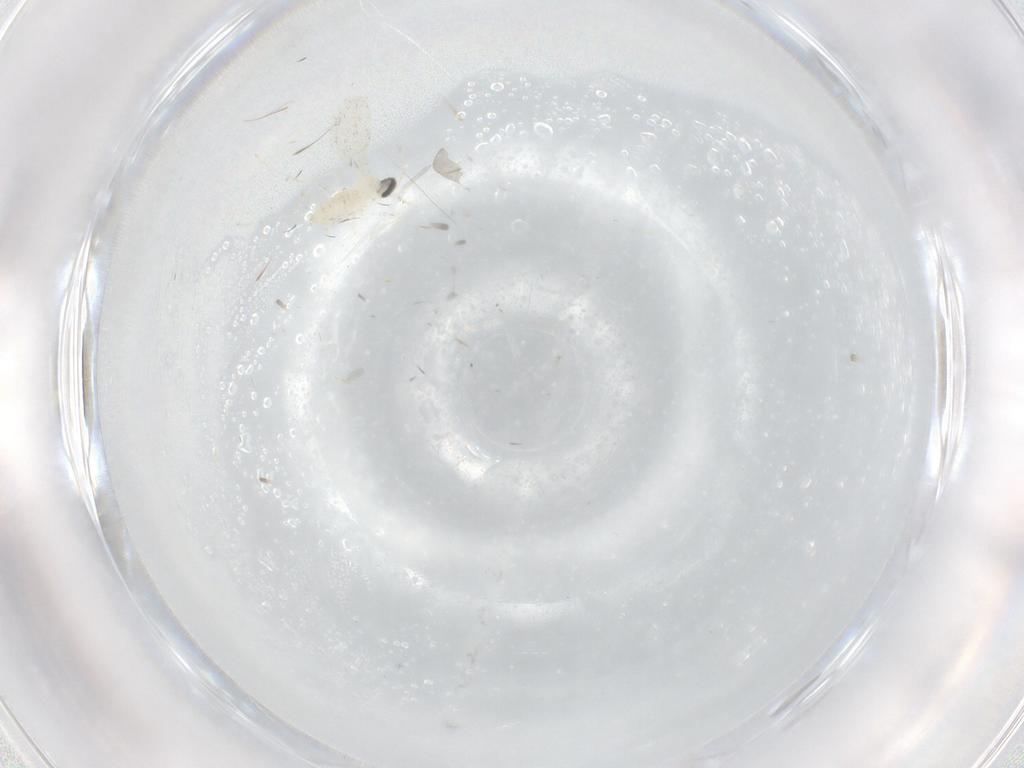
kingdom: Animalia
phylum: Arthropoda
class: Insecta
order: Diptera
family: Cecidomyiidae
